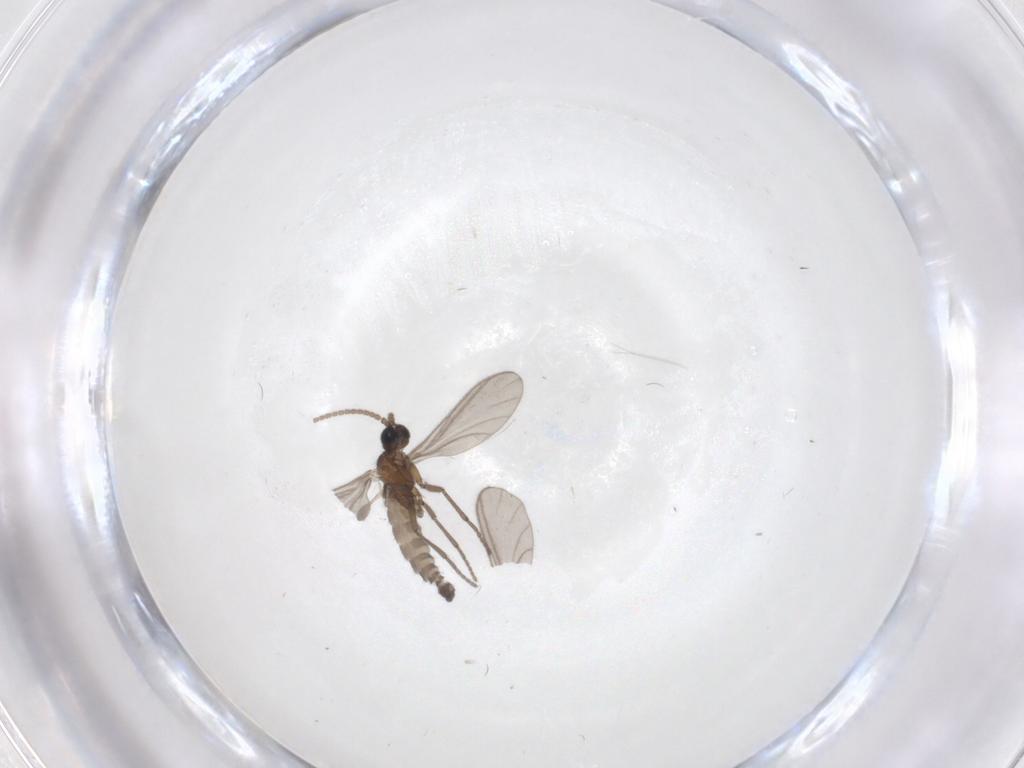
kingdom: Animalia
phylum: Arthropoda
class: Insecta
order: Diptera
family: Sciaridae
